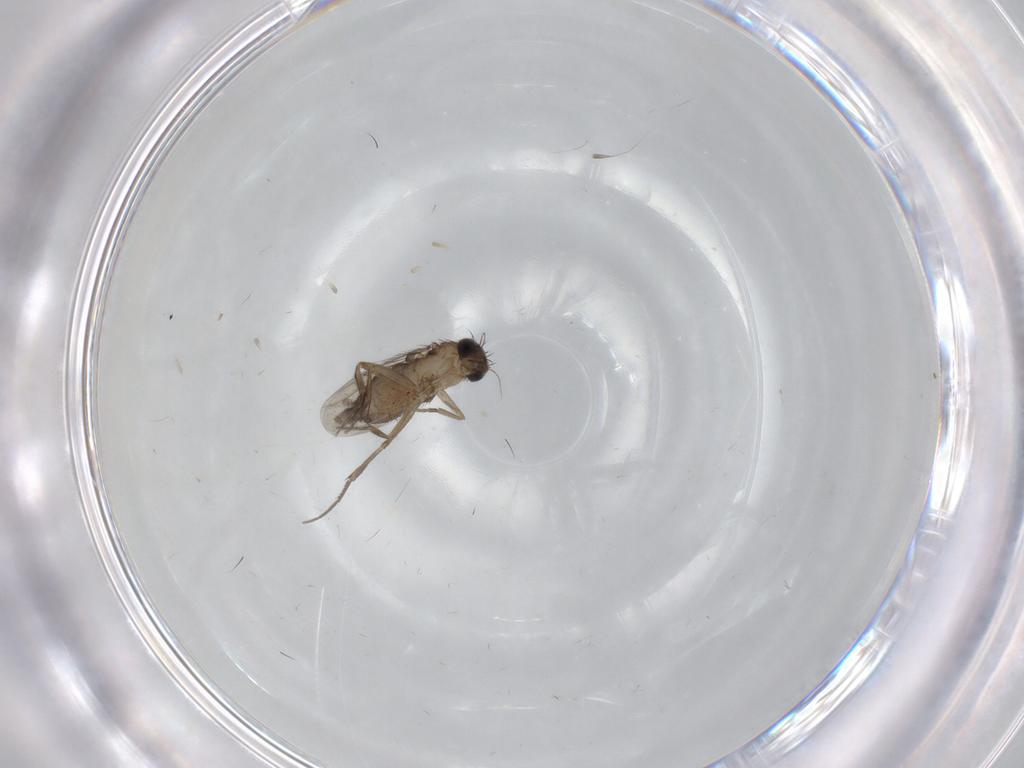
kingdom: Animalia
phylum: Arthropoda
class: Insecta
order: Diptera
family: Phoridae
